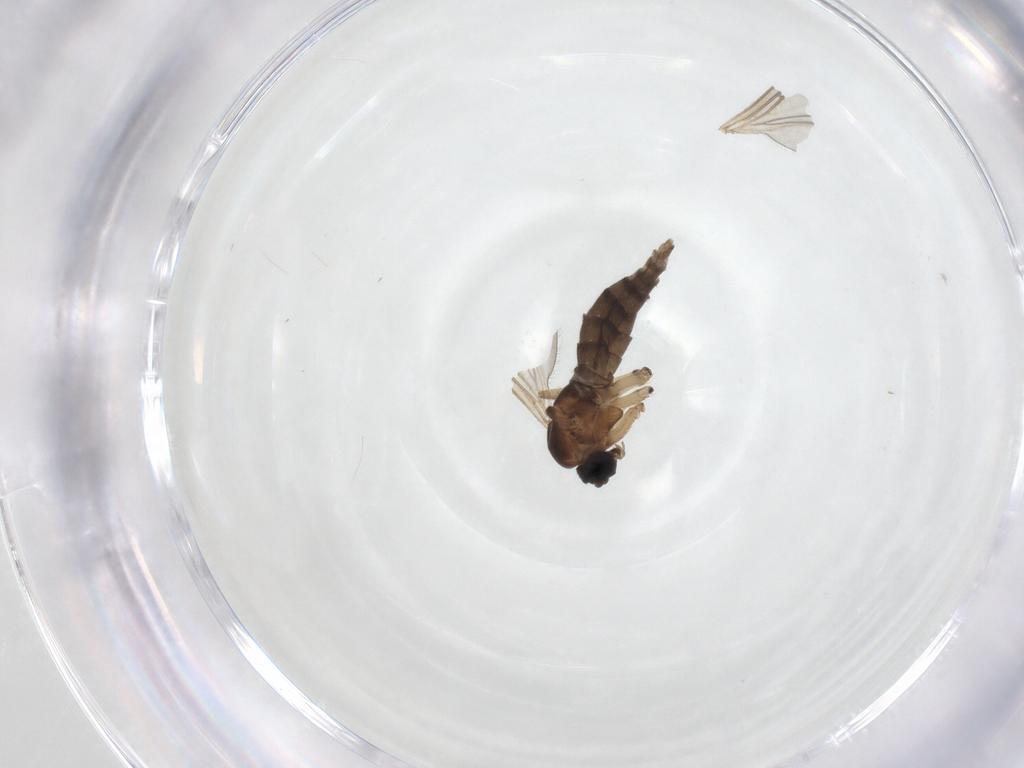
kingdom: Animalia
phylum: Arthropoda
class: Insecta
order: Diptera
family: Sciaridae
